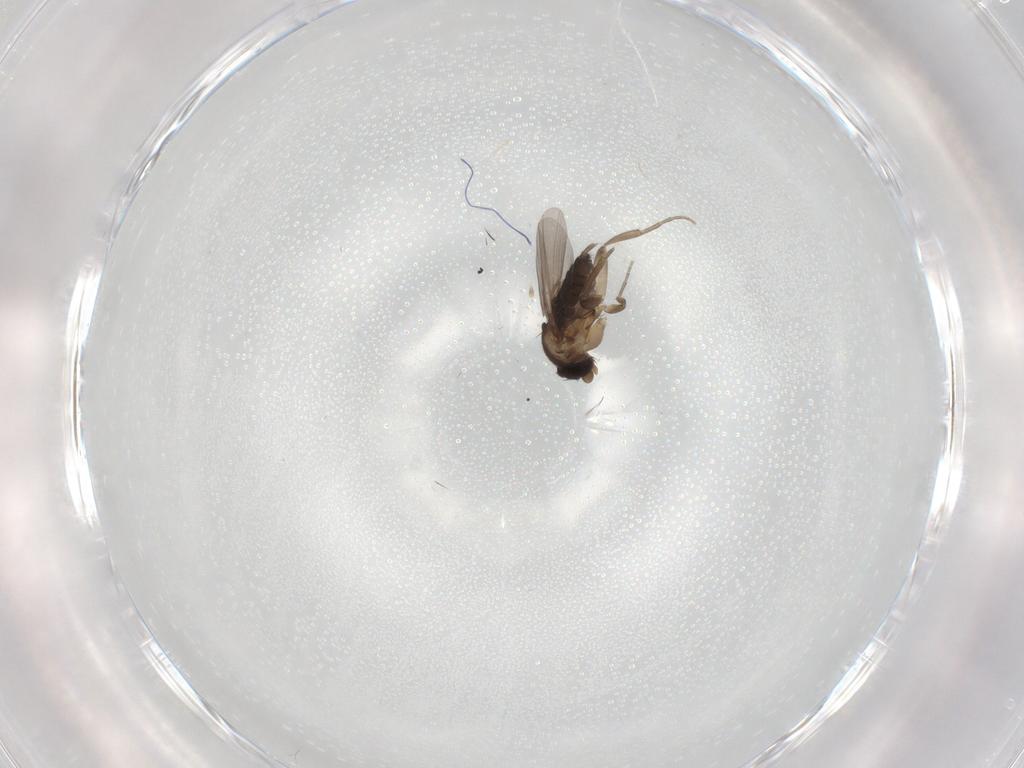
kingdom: Animalia
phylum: Arthropoda
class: Insecta
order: Diptera
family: Phoridae
